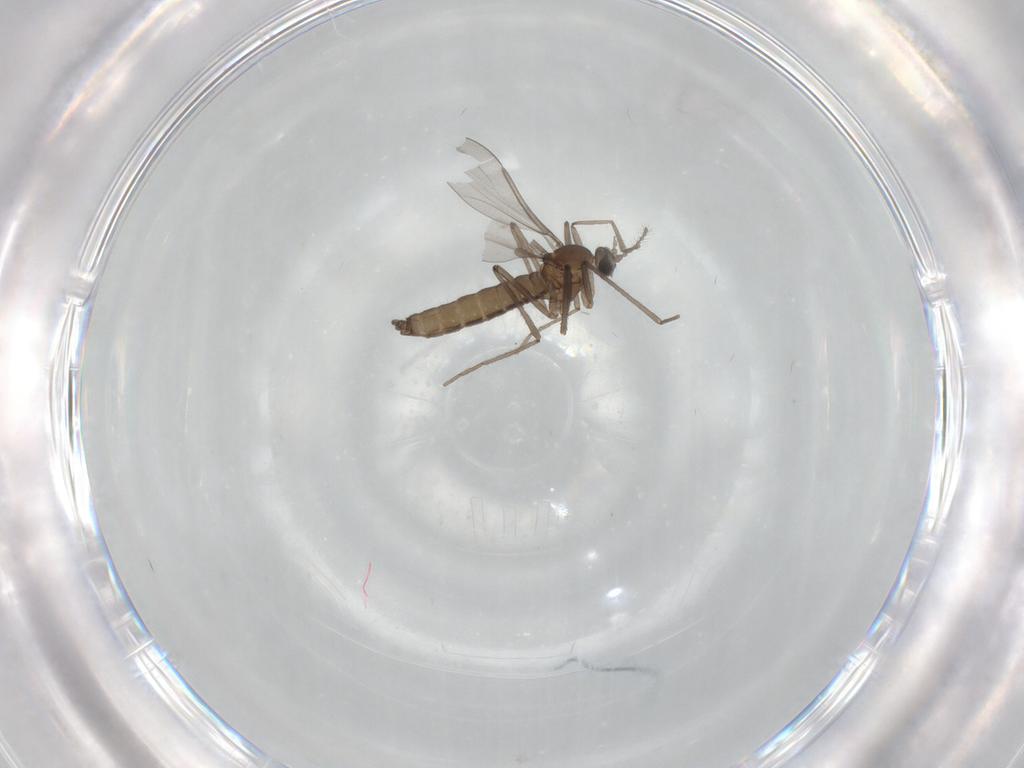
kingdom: Animalia
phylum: Arthropoda
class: Insecta
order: Diptera
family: Cecidomyiidae
